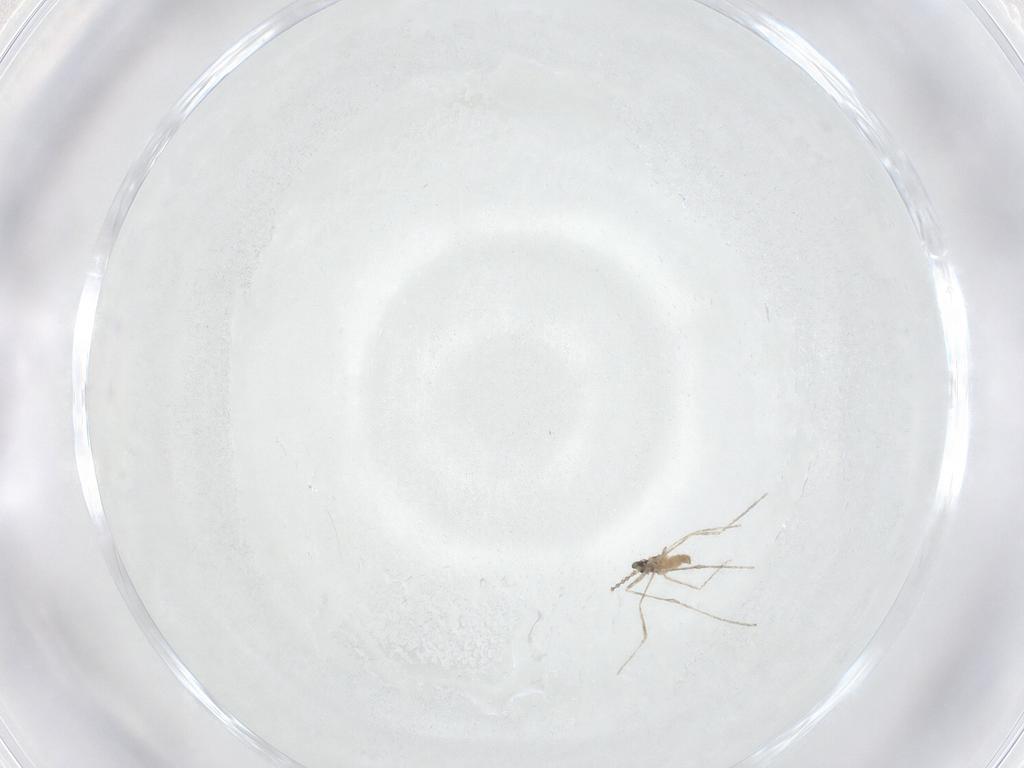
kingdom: Animalia
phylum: Arthropoda
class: Insecta
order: Diptera
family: Cecidomyiidae
